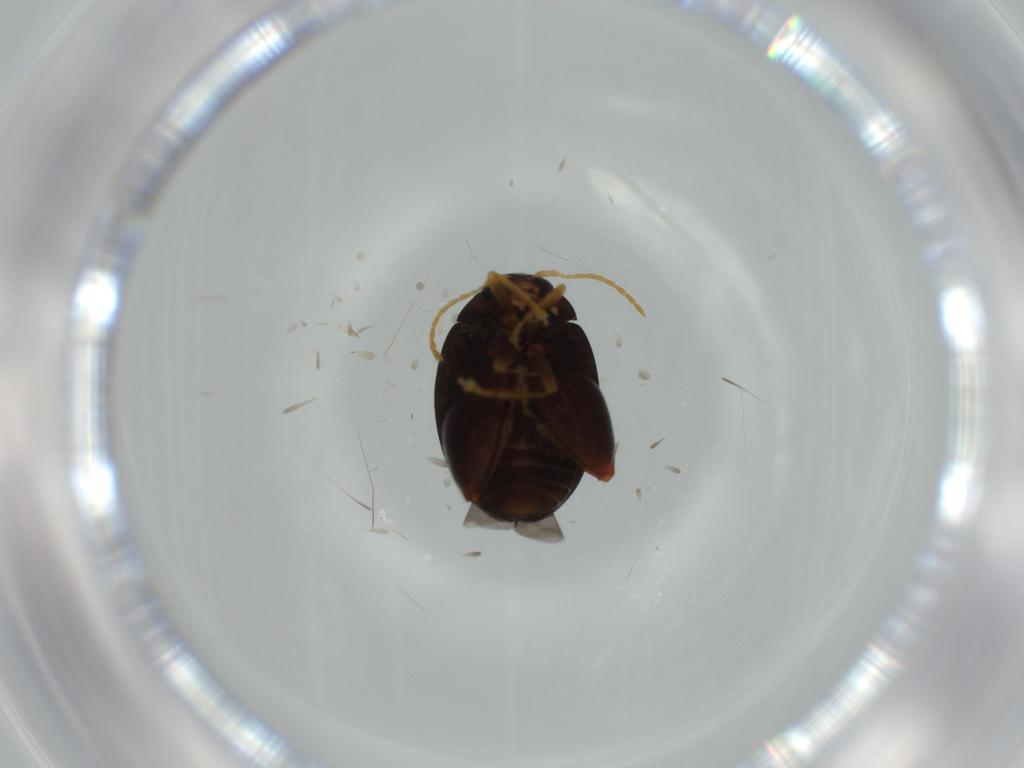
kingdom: Animalia
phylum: Arthropoda
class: Insecta
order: Coleoptera
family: Chrysomelidae
